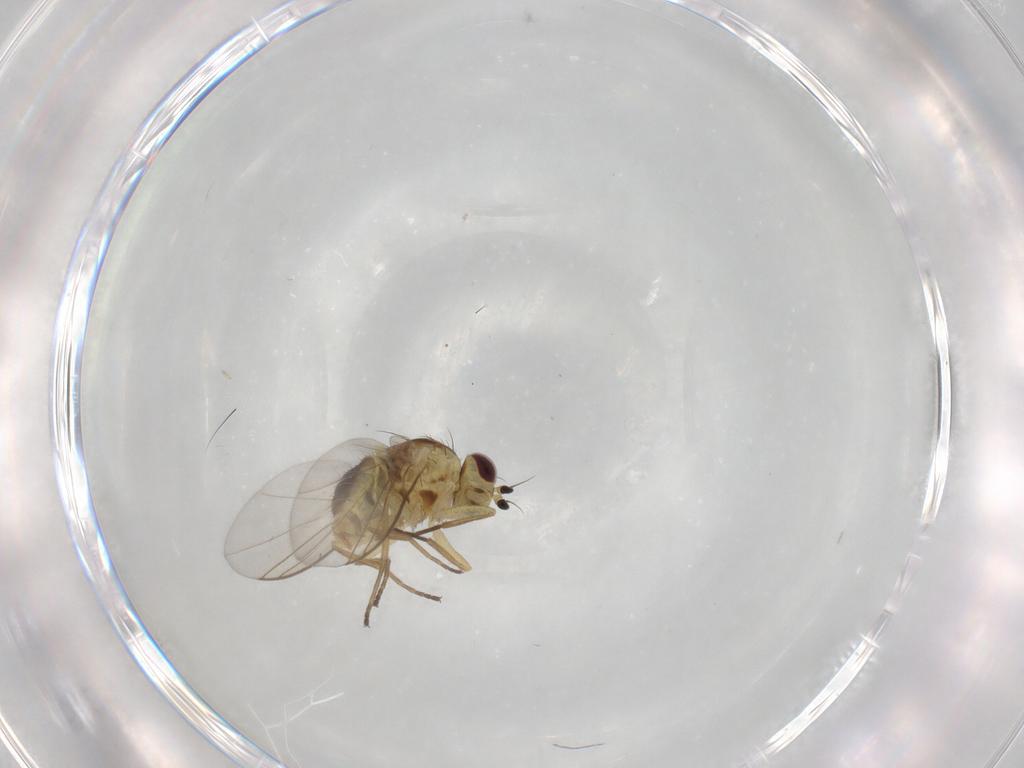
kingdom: Animalia
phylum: Arthropoda
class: Insecta
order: Diptera
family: Agromyzidae
